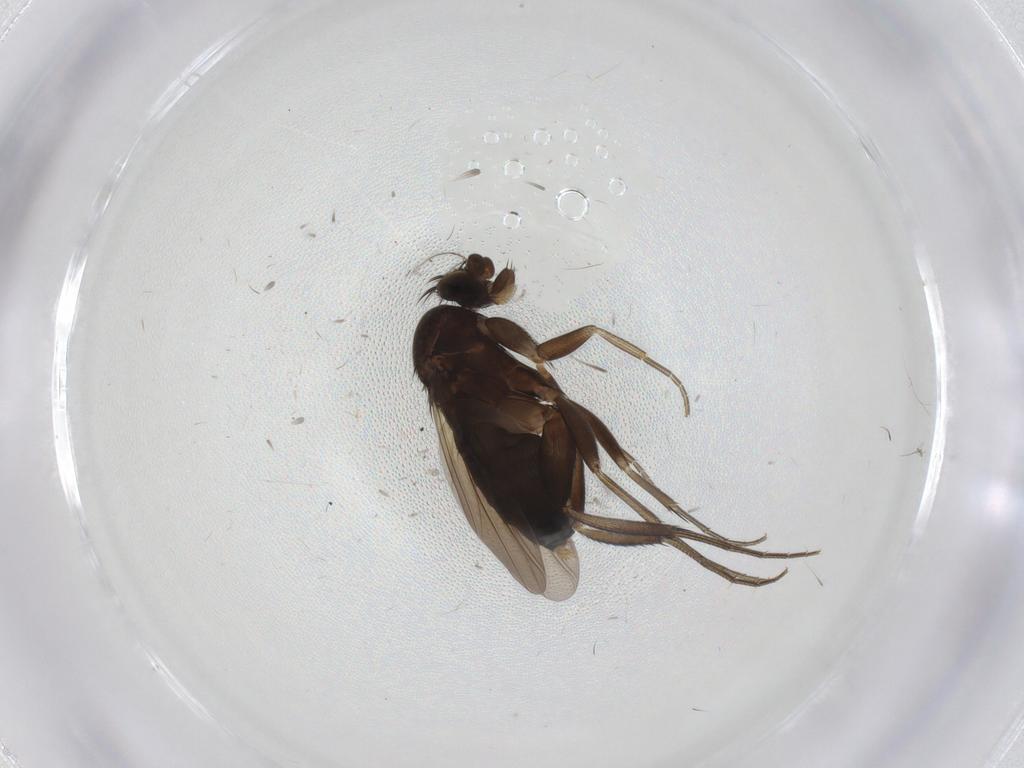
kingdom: Animalia
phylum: Arthropoda
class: Insecta
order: Diptera
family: Phoridae
